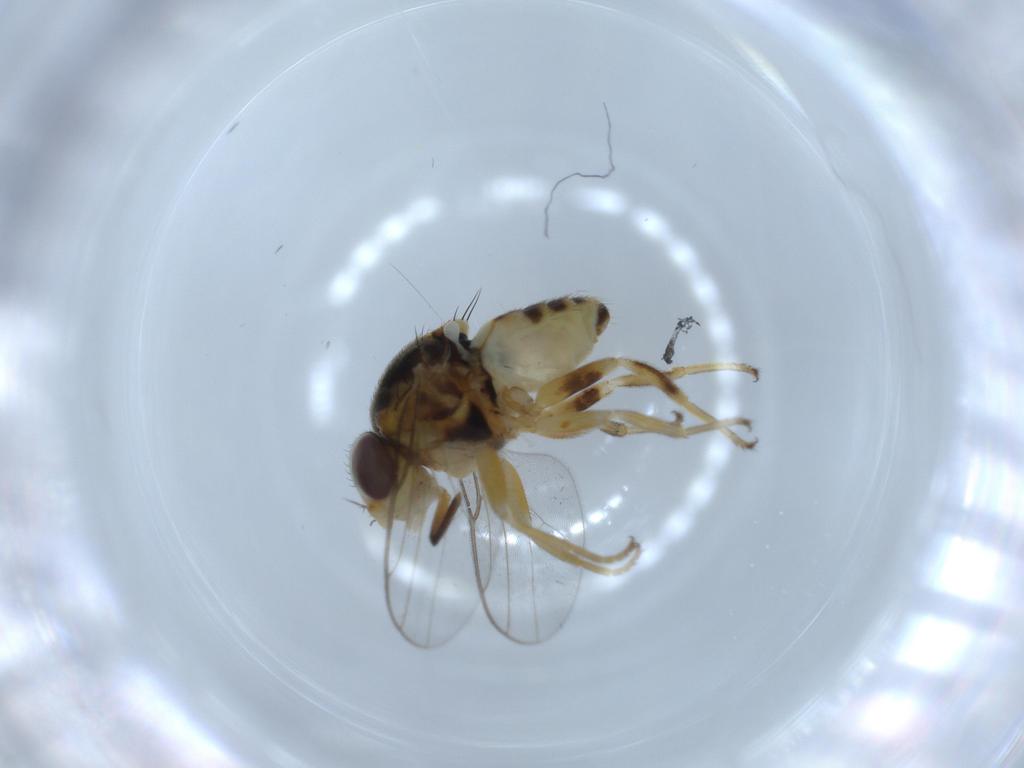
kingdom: Animalia
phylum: Arthropoda
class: Insecta
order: Diptera
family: Chloropidae
